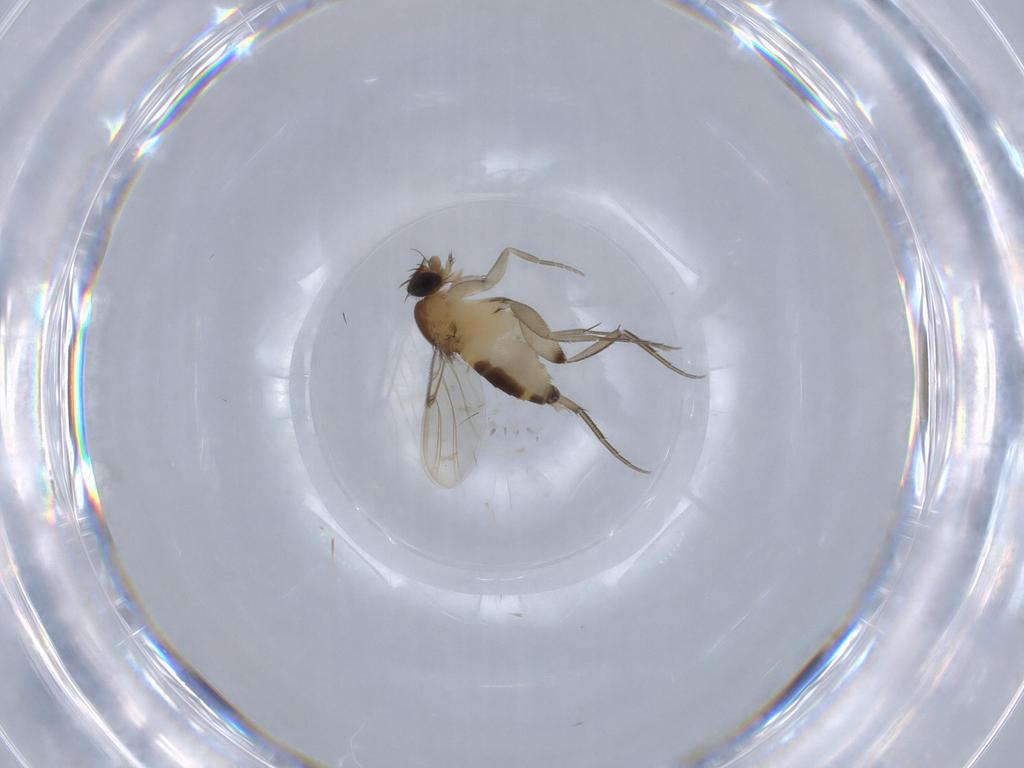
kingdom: Animalia
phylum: Arthropoda
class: Insecta
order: Diptera
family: Phoridae
